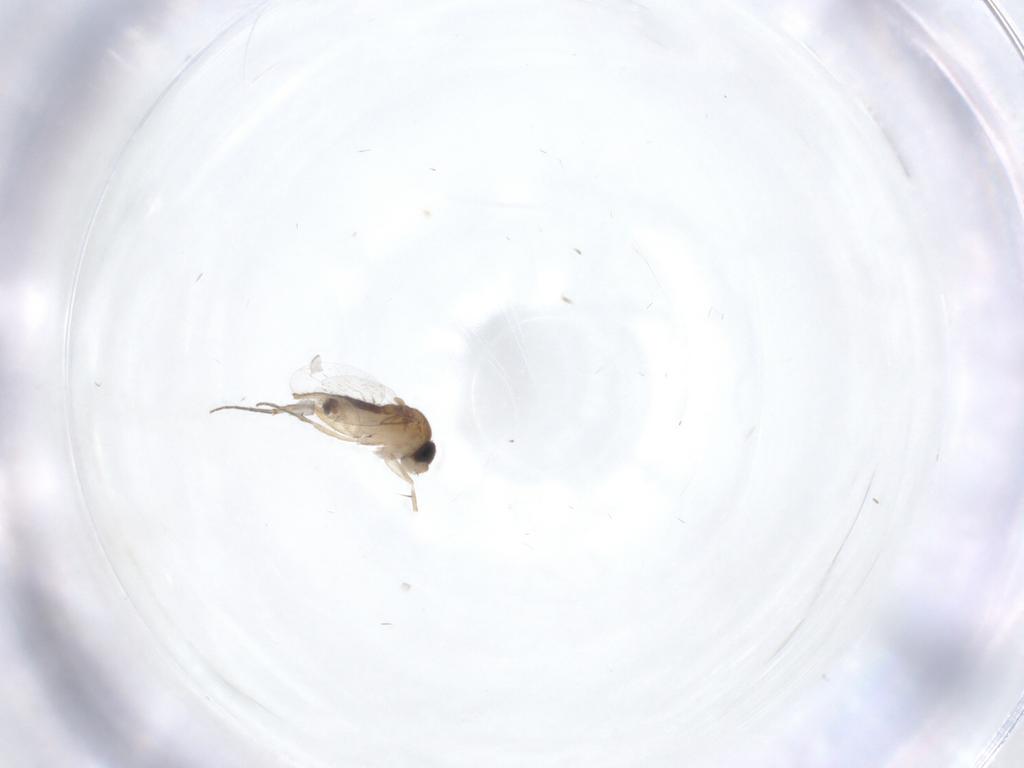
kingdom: Animalia
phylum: Arthropoda
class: Insecta
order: Diptera
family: Phoridae
